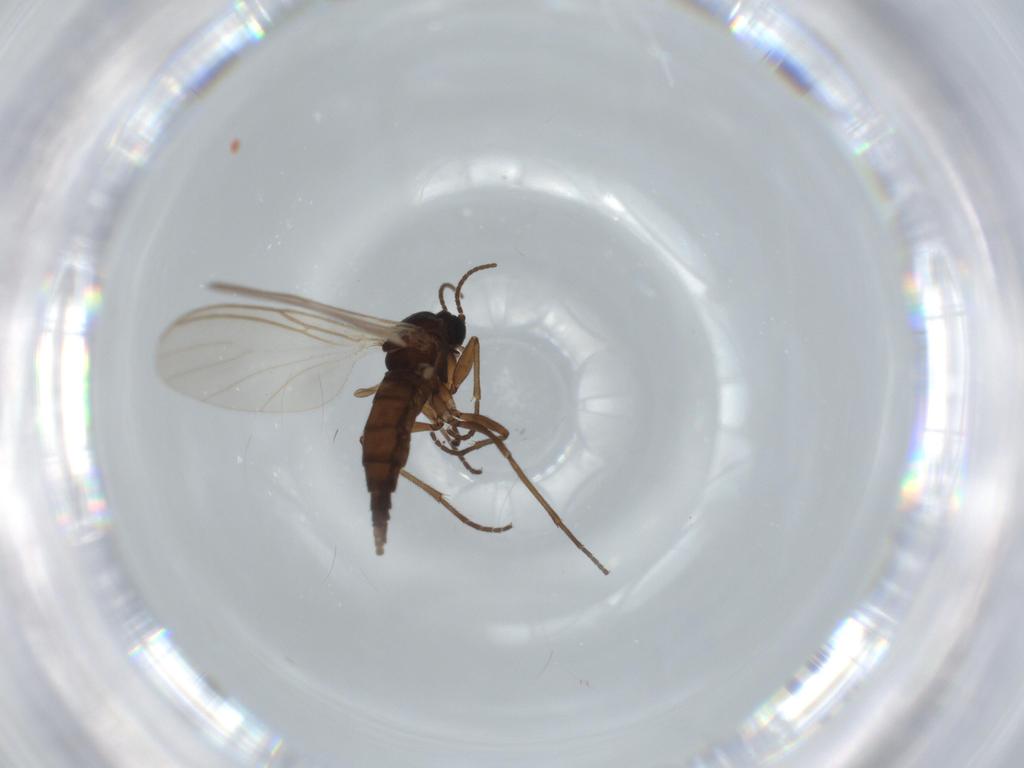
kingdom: Animalia
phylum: Arthropoda
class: Insecta
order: Diptera
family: Sciaridae
